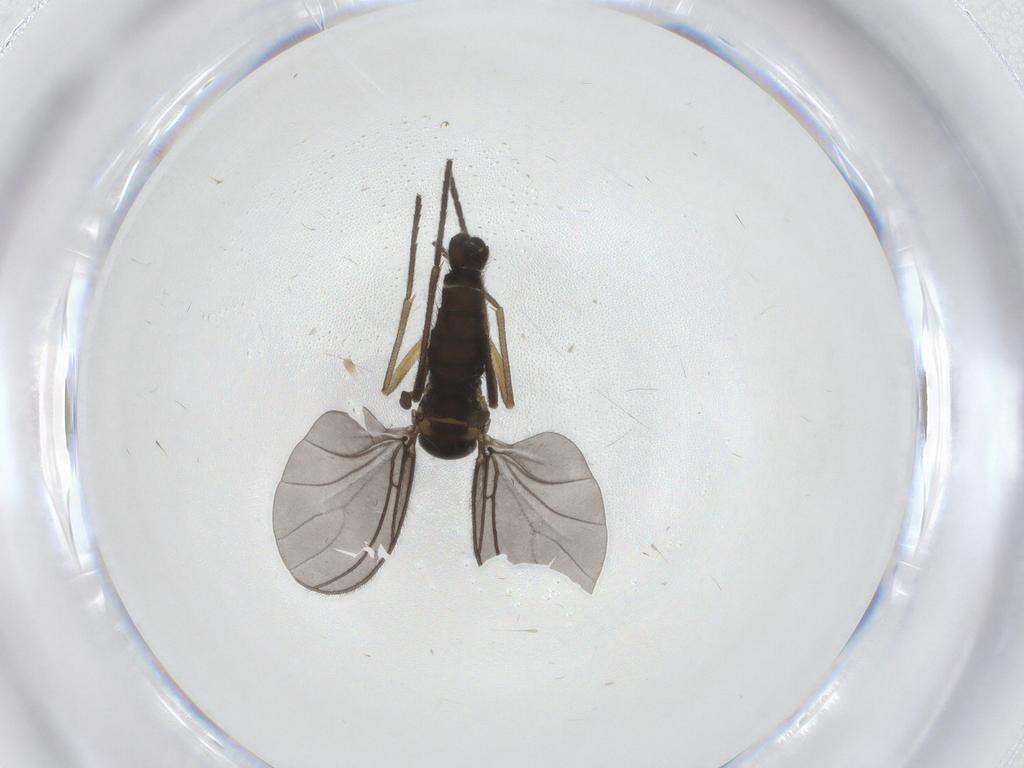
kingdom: Animalia
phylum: Arthropoda
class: Insecta
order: Diptera
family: Sciaridae
